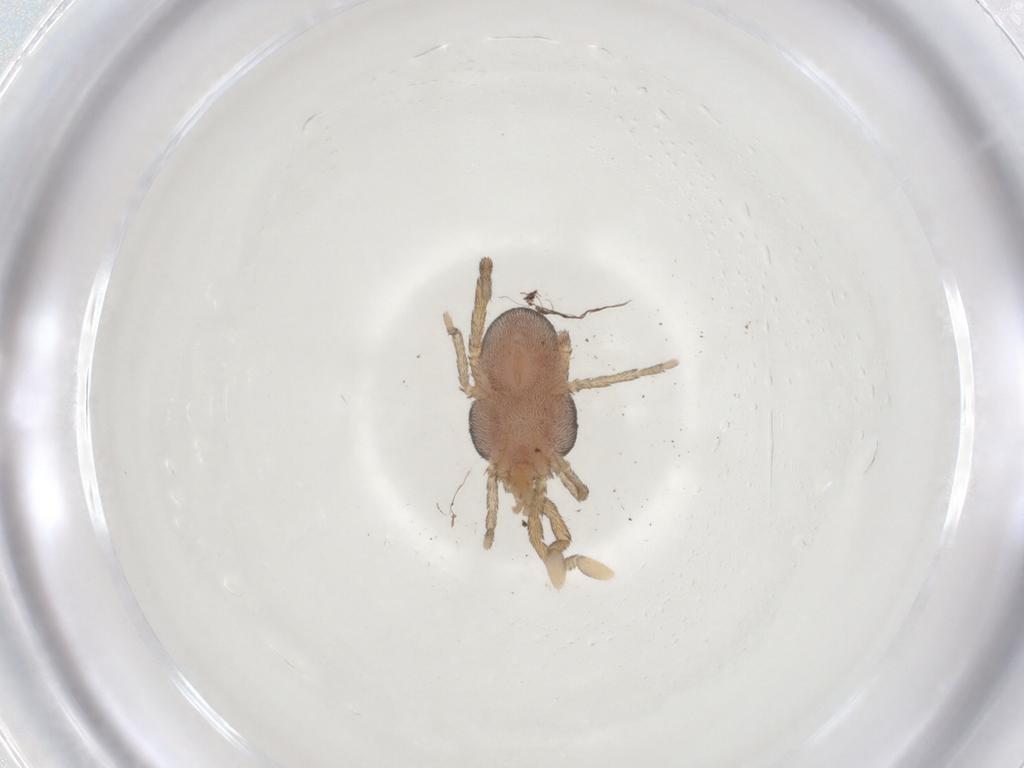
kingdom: Animalia
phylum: Arthropoda
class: Arachnida
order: Trombidiformes
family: Erythraeidae
